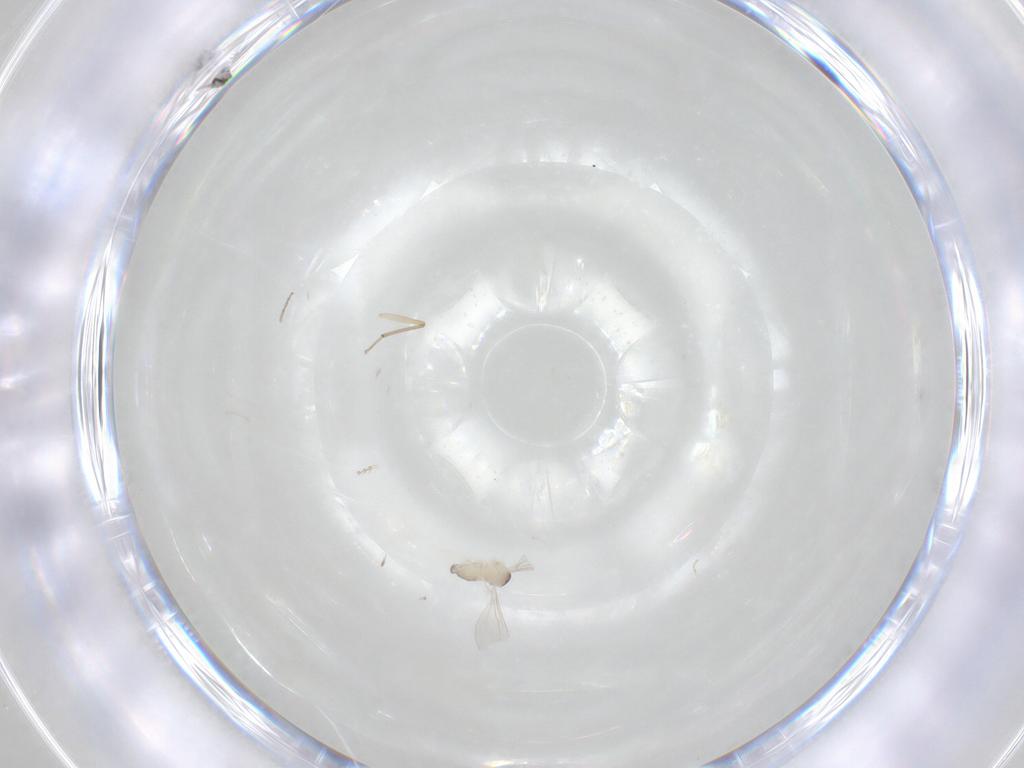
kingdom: Animalia
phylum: Arthropoda
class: Insecta
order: Diptera
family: Cecidomyiidae
